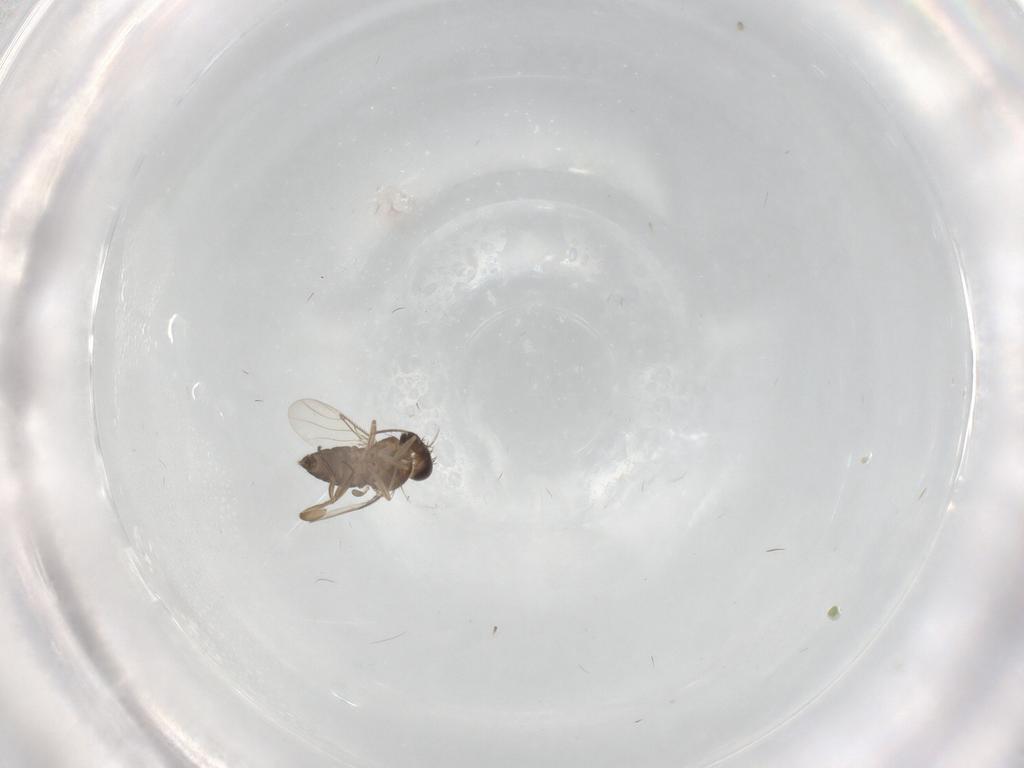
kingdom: Animalia
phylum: Arthropoda
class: Insecta
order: Diptera
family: Phoridae
